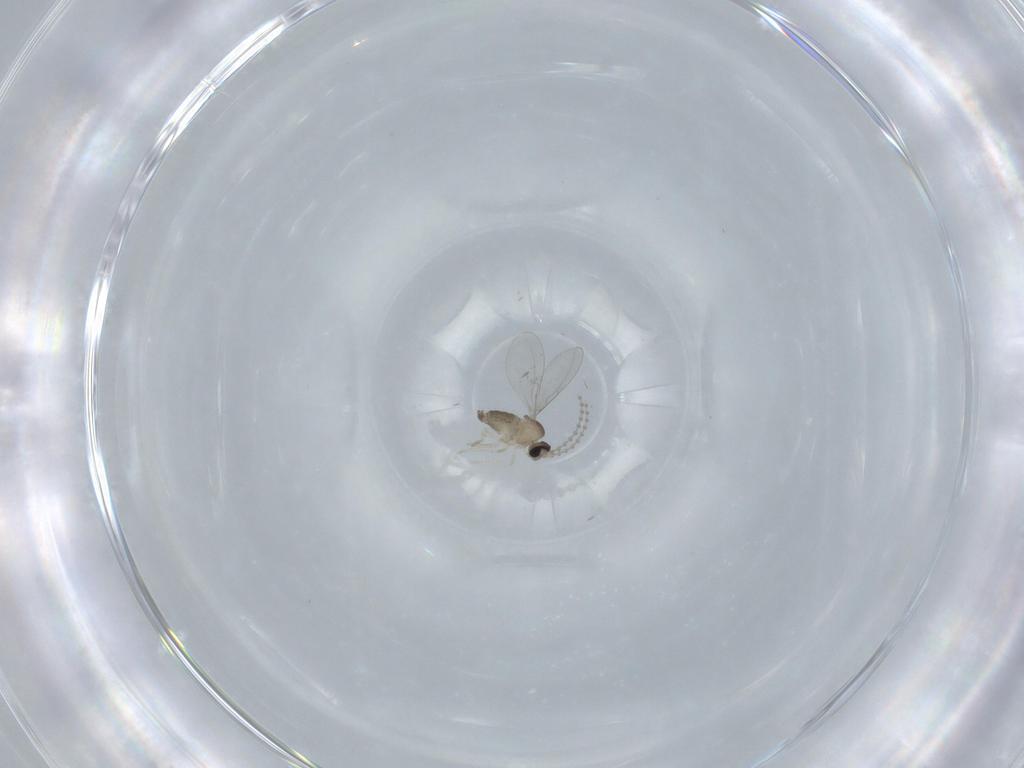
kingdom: Animalia
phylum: Arthropoda
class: Insecta
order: Diptera
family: Cecidomyiidae
